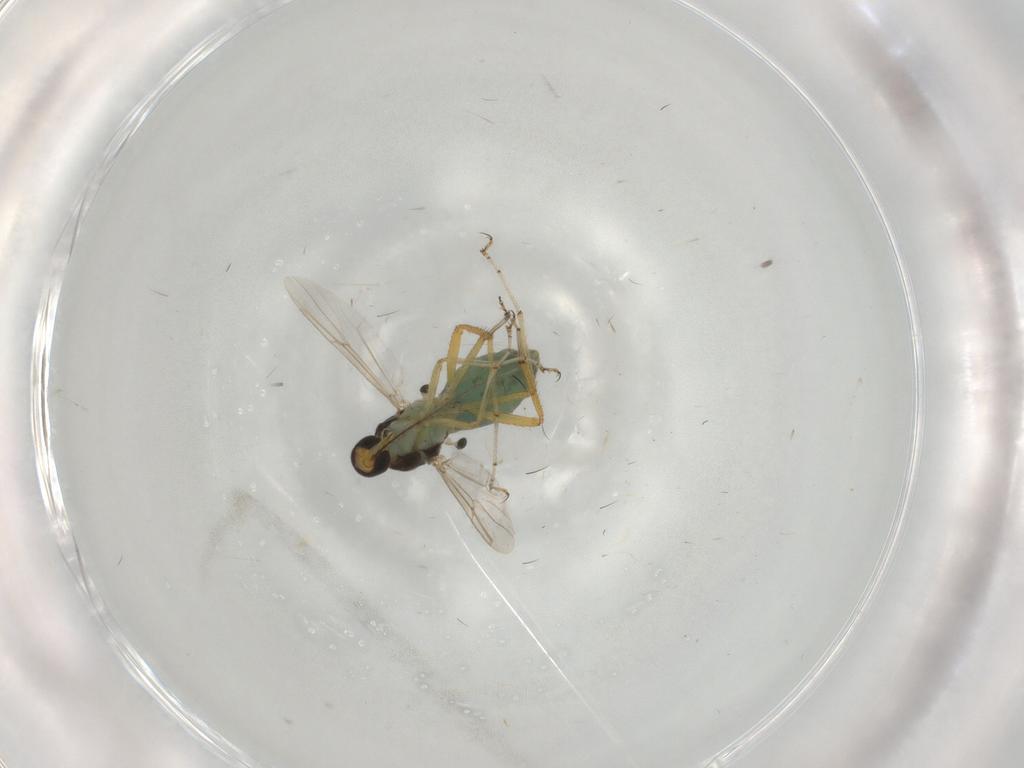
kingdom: Animalia
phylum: Arthropoda
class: Insecta
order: Diptera
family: Ceratopogonidae
